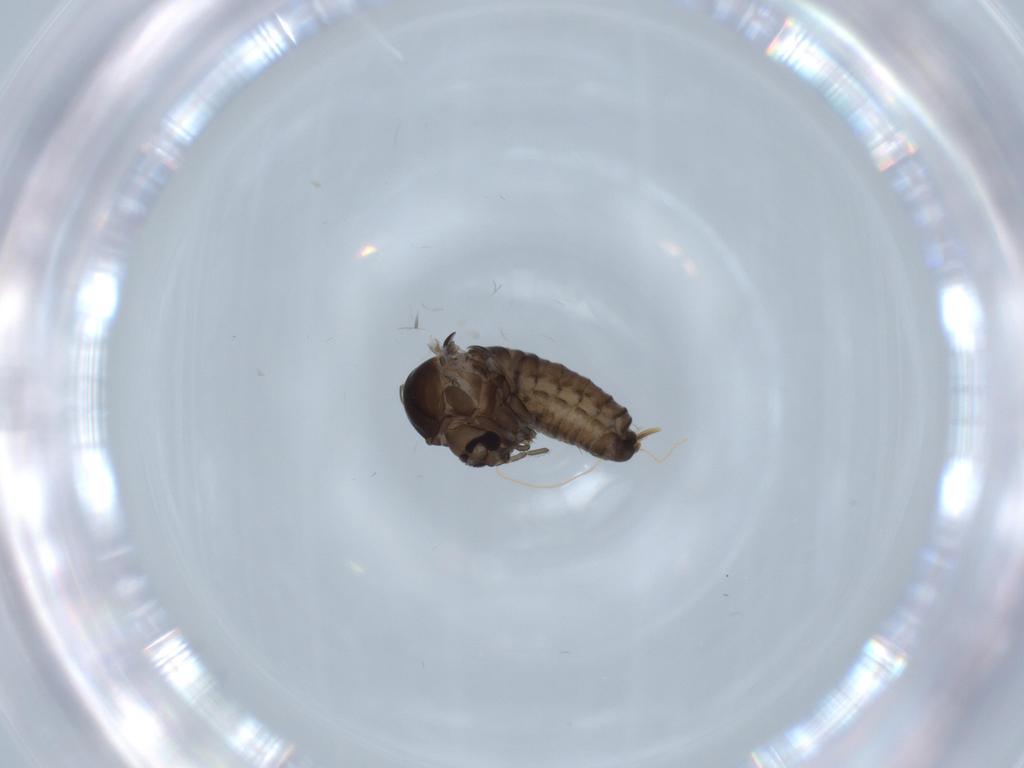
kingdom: Animalia
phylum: Arthropoda
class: Insecta
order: Diptera
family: Psychodidae
